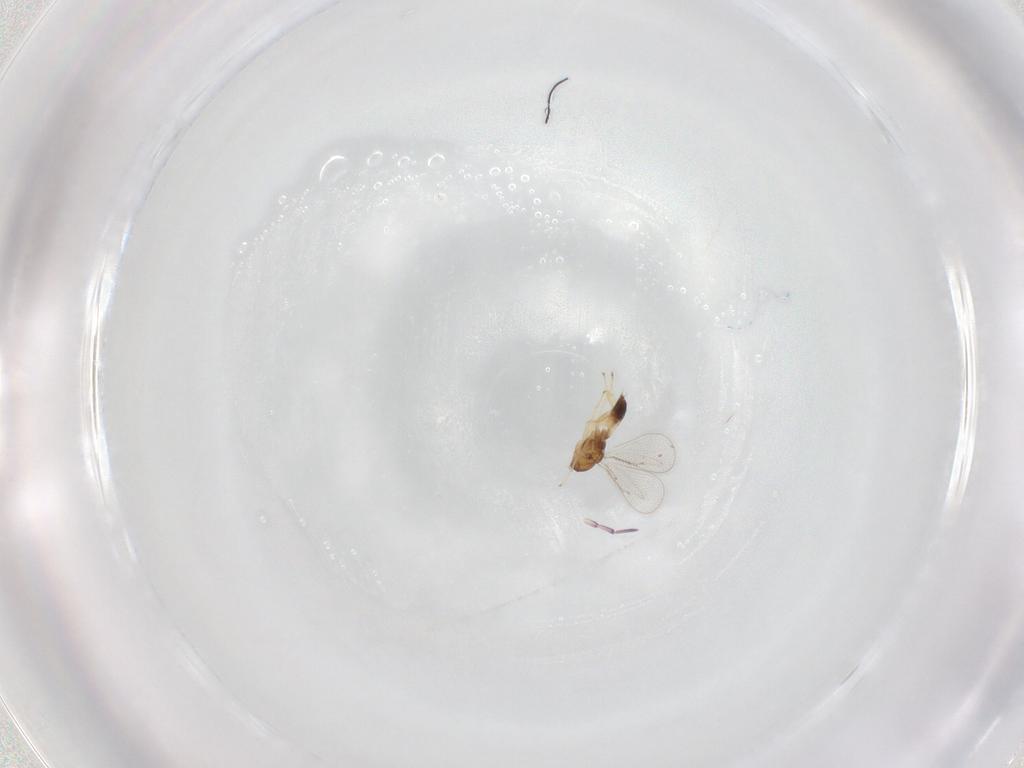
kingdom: Animalia
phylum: Arthropoda
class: Insecta
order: Hymenoptera
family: Eulophidae
